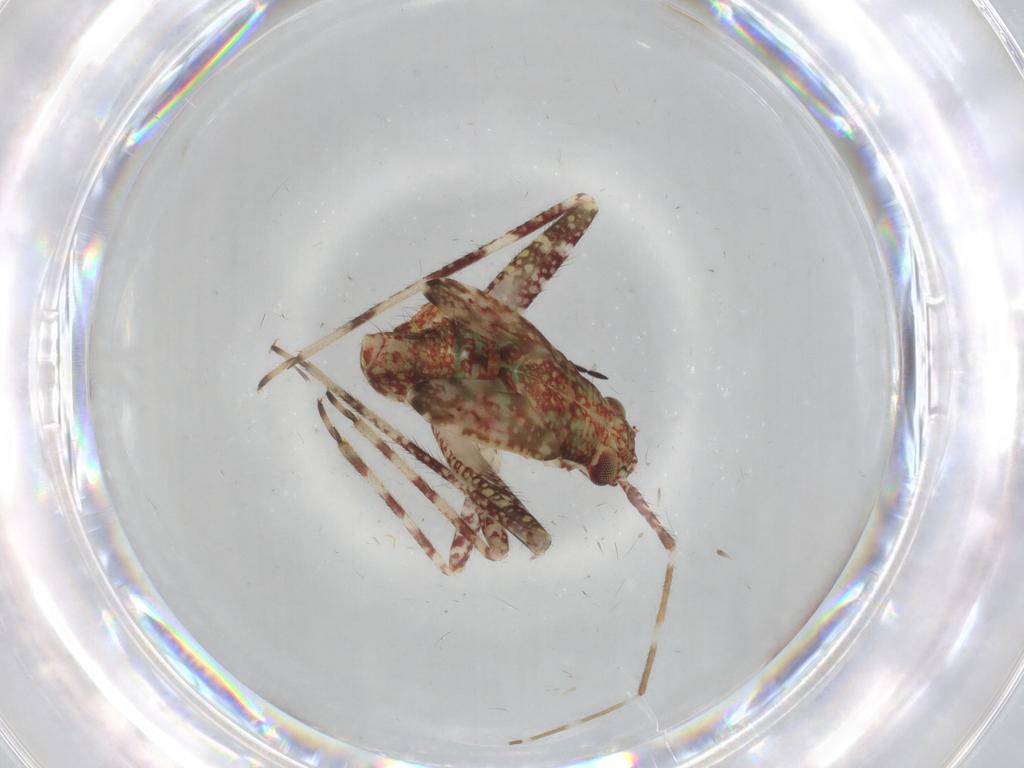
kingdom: Animalia
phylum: Arthropoda
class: Insecta
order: Hemiptera
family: Miridae
